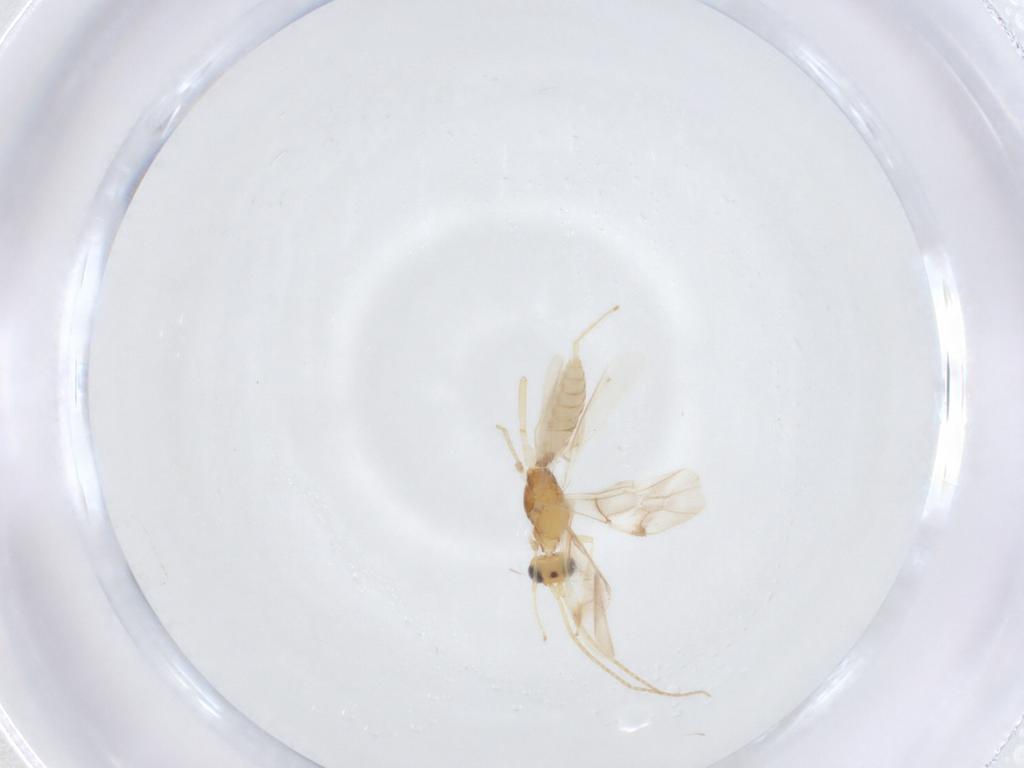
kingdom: Animalia
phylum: Arthropoda
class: Insecta
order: Hymenoptera
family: Braconidae
